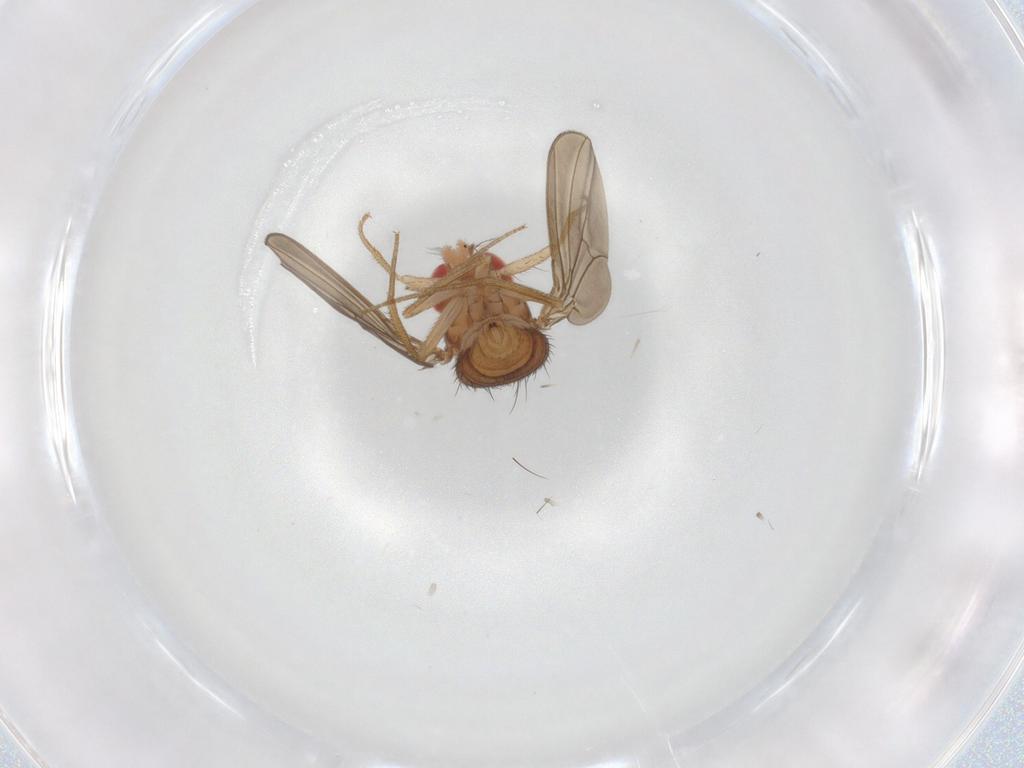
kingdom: Animalia
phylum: Arthropoda
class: Insecta
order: Diptera
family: Drosophilidae
